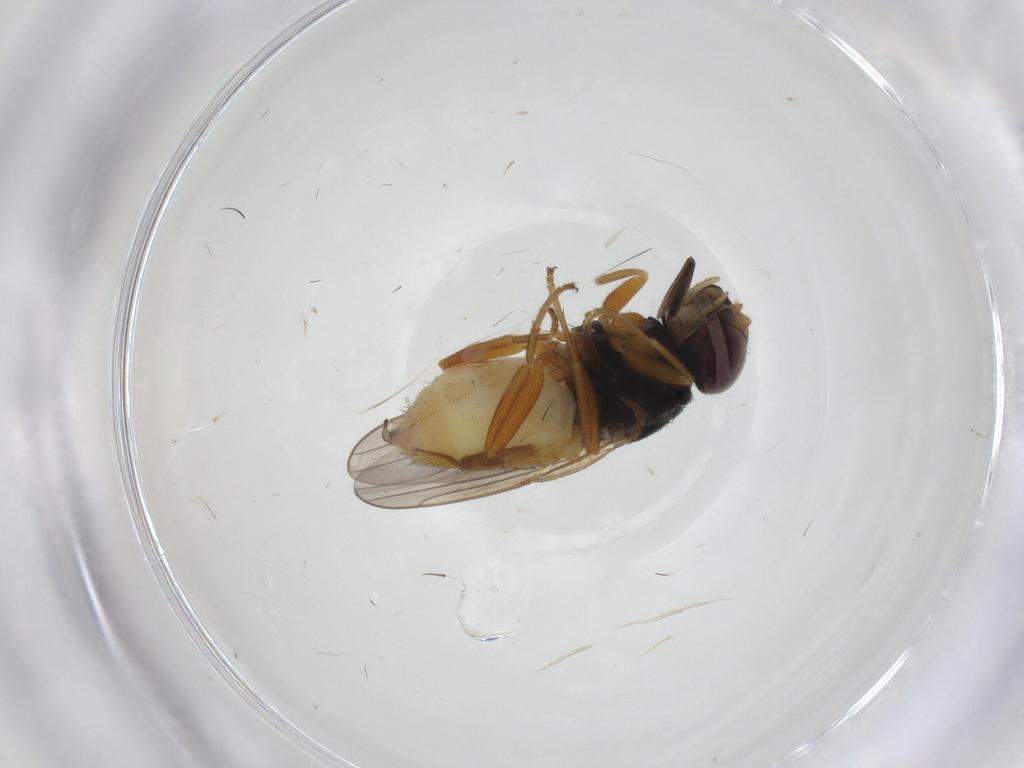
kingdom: Animalia
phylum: Arthropoda
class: Insecta
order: Diptera
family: Chloropidae
